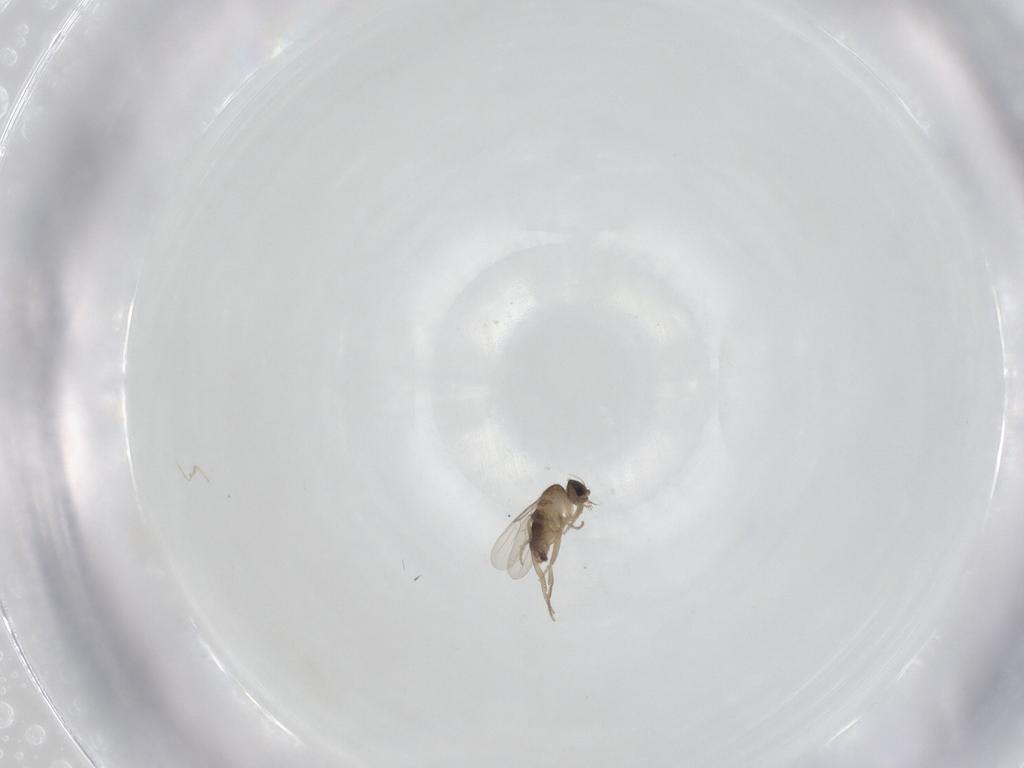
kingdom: Animalia
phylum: Arthropoda
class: Insecta
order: Diptera
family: Phoridae
